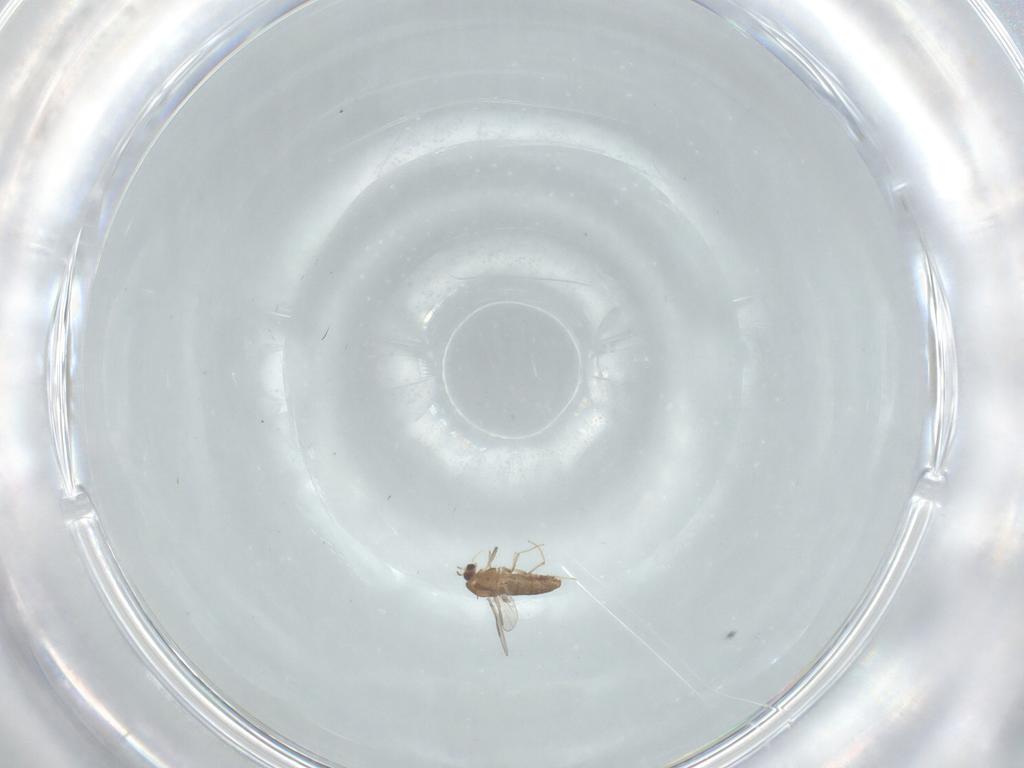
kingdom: Animalia
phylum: Arthropoda
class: Insecta
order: Diptera
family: Chironomidae
